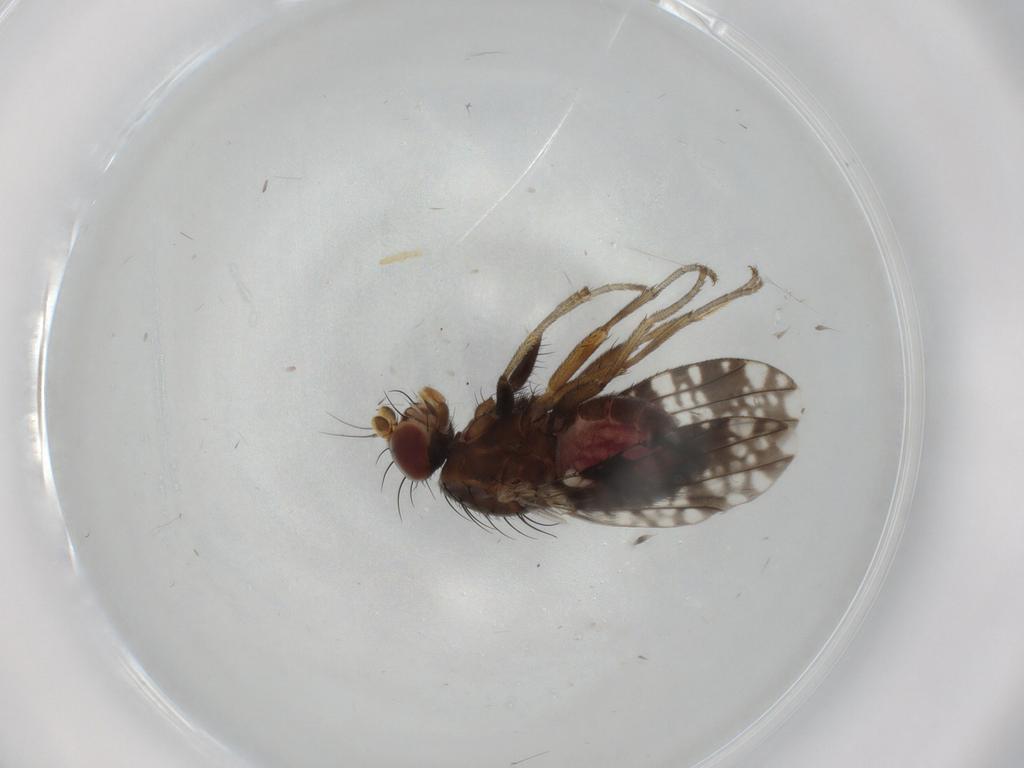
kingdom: Animalia
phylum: Arthropoda
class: Insecta
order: Diptera
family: Tephritidae
